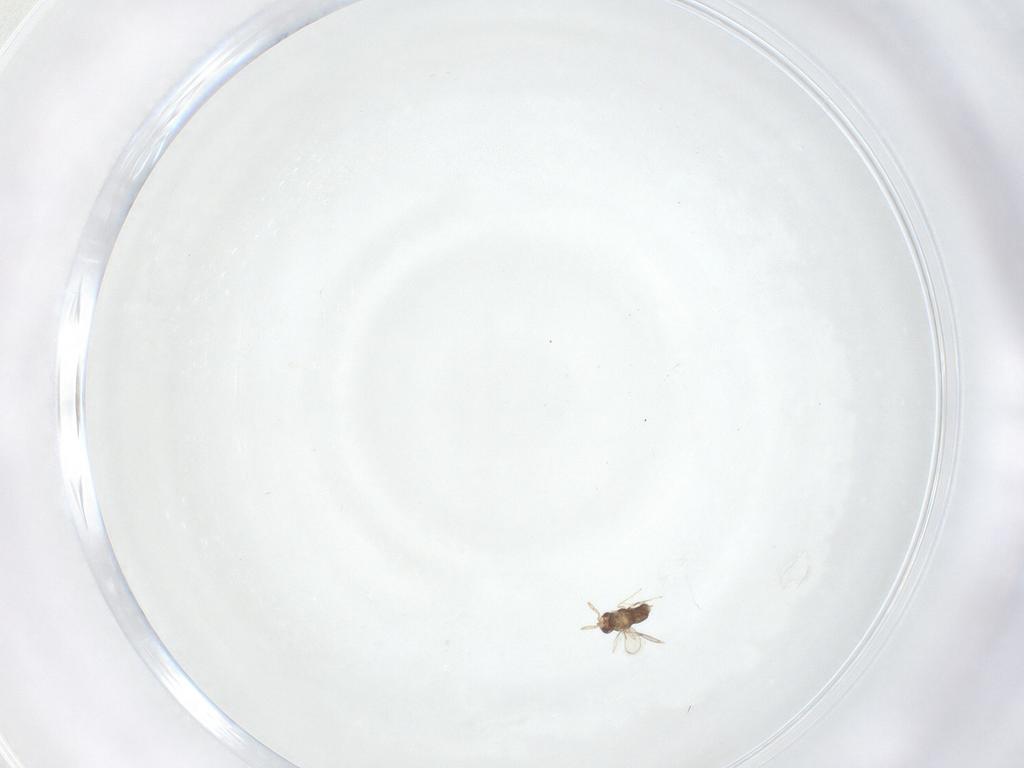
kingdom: Animalia
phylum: Arthropoda
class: Insecta
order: Hymenoptera
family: Aphelinidae
